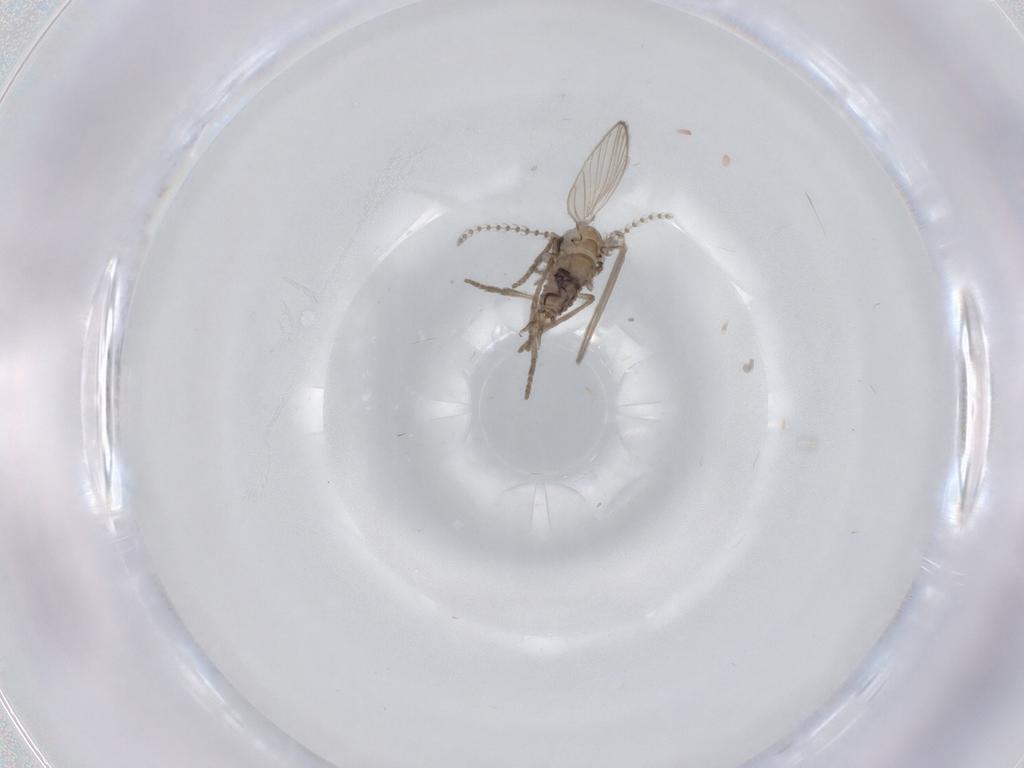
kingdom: Animalia
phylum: Arthropoda
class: Insecta
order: Diptera
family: Psychodidae
